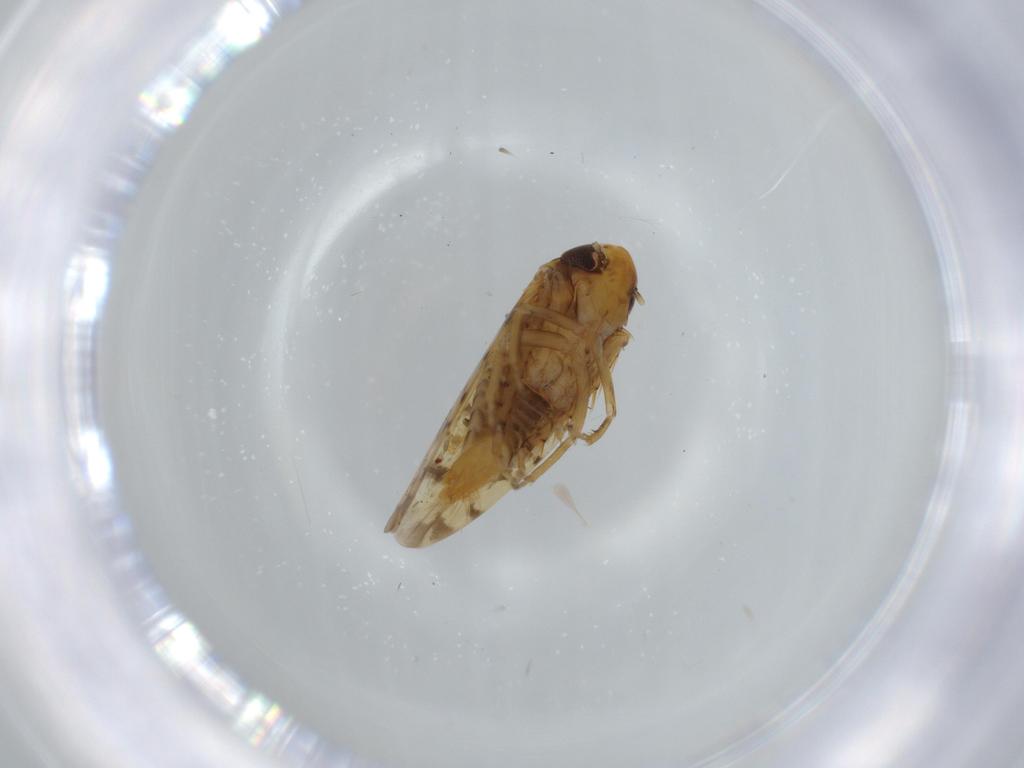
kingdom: Animalia
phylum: Arthropoda
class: Insecta
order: Hemiptera
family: Cicadellidae
